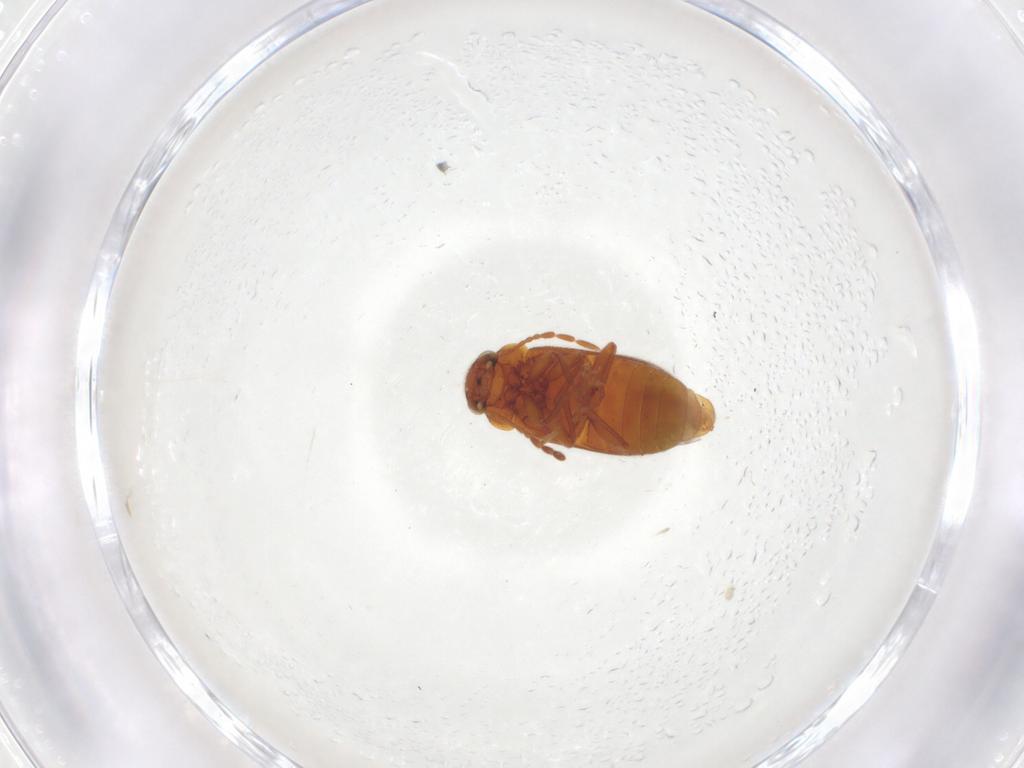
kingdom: Animalia
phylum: Arthropoda
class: Insecta
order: Coleoptera
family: Ptinidae
